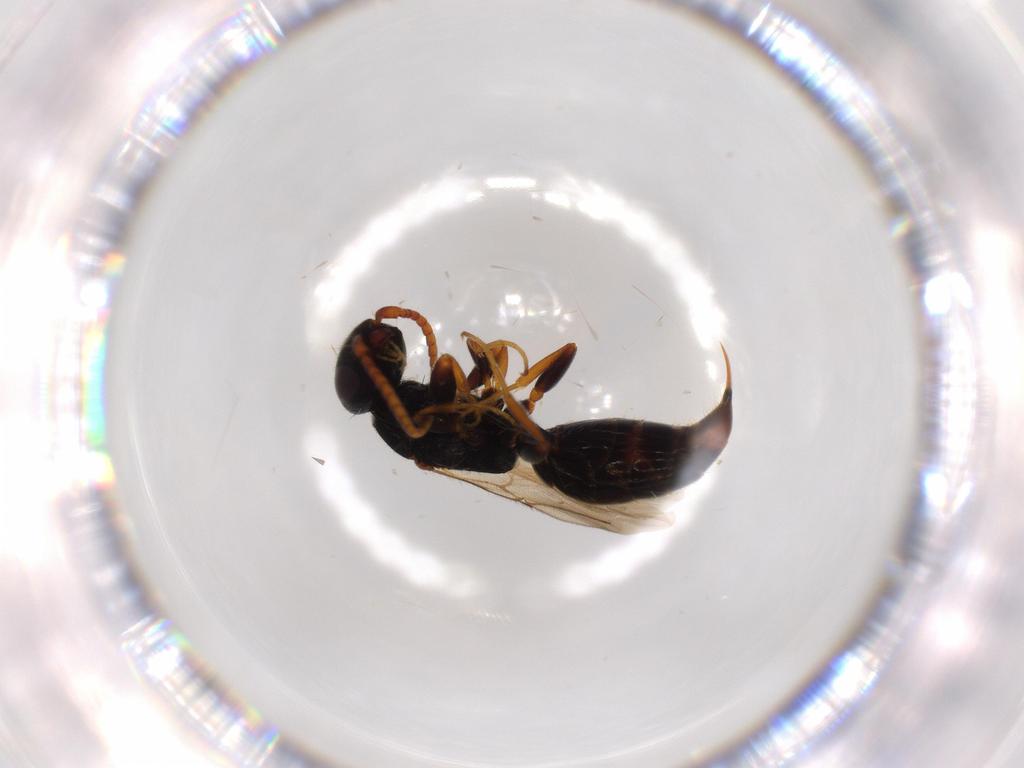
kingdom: Animalia
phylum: Arthropoda
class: Insecta
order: Hymenoptera
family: Bethylidae
